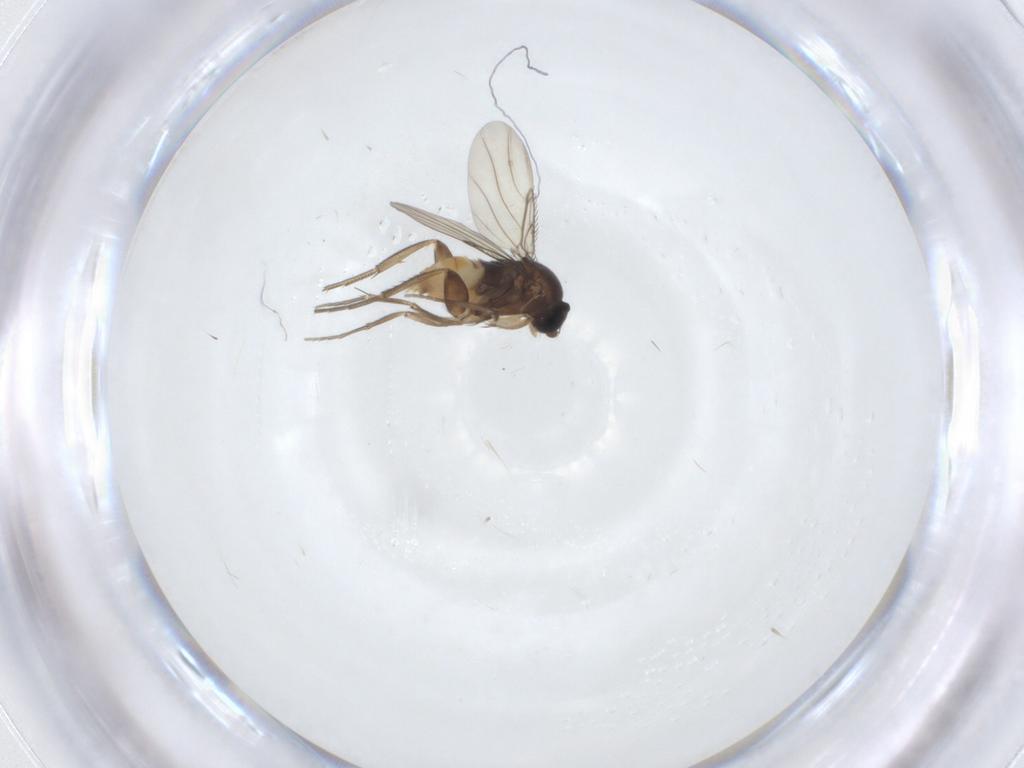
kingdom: Animalia
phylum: Arthropoda
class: Insecta
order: Diptera
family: Phoridae
